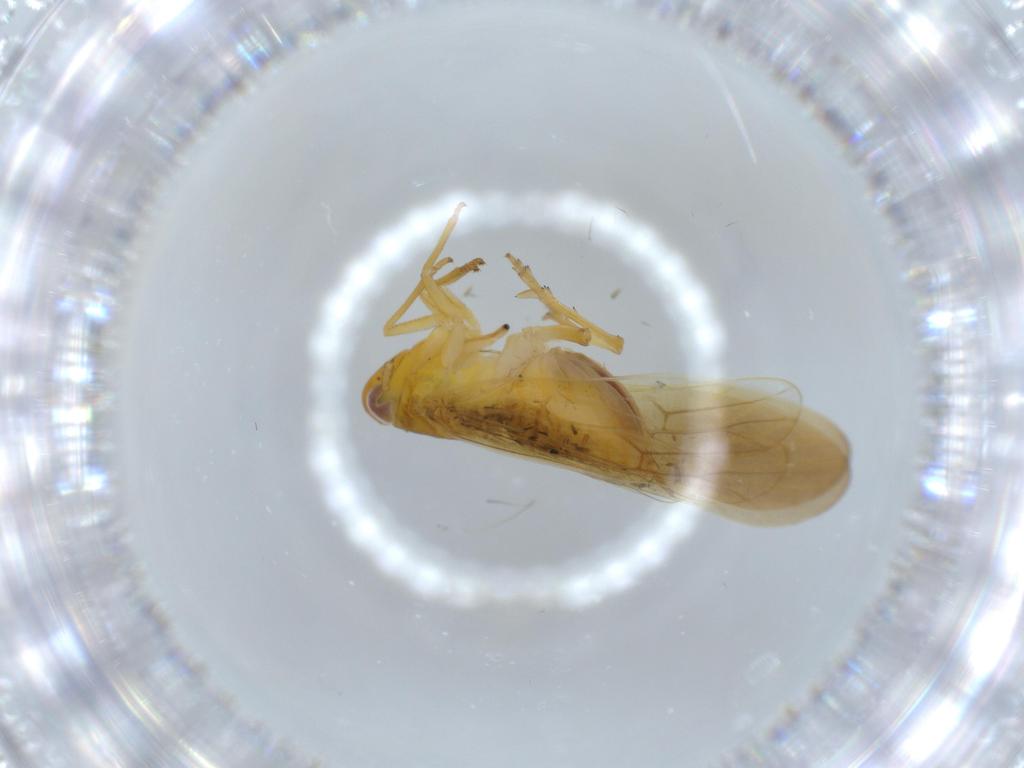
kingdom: Animalia
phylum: Arthropoda
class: Insecta
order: Hemiptera
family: Delphacidae
